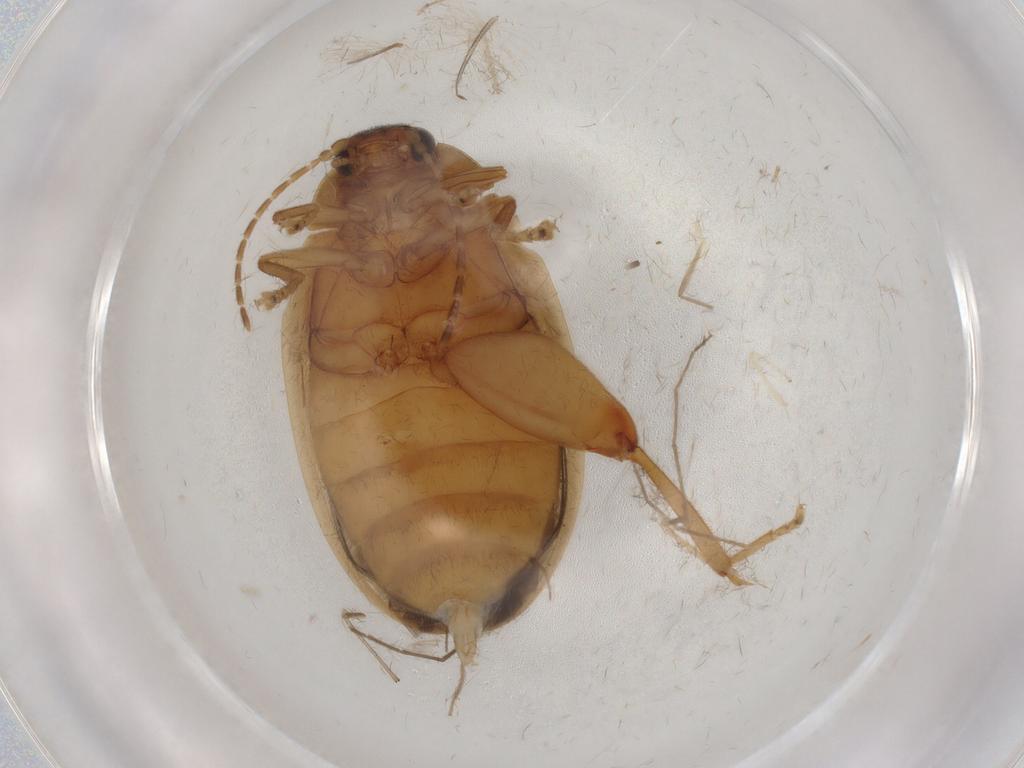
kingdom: Animalia
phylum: Arthropoda
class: Insecta
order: Coleoptera
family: Scirtidae
